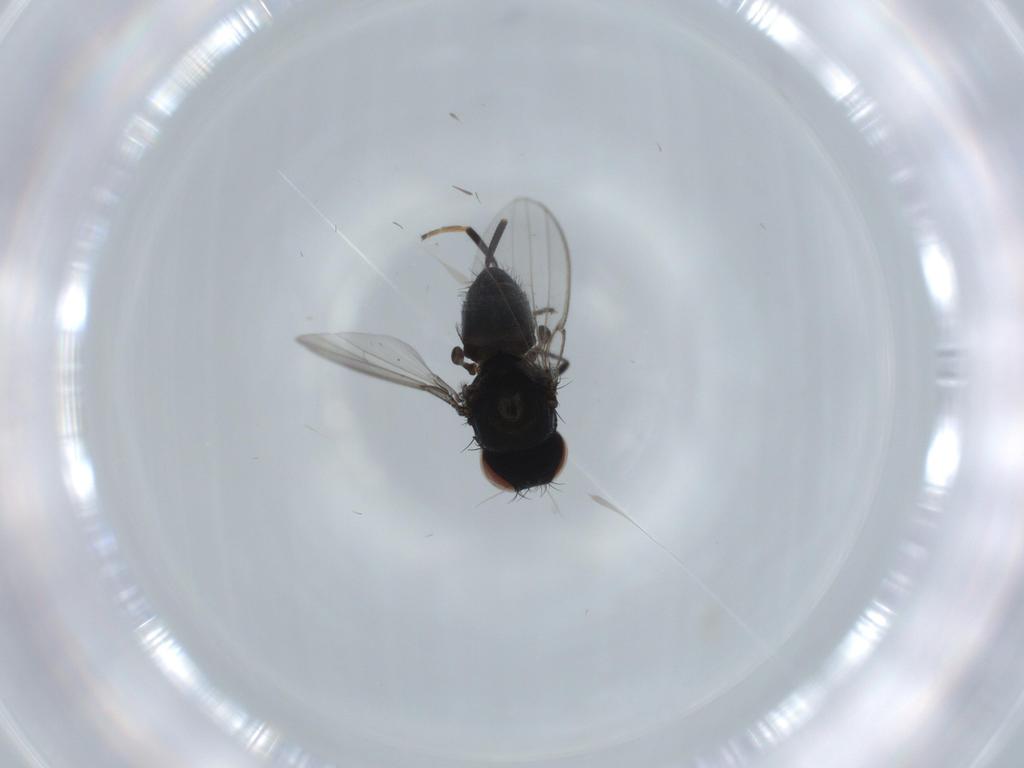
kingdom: Animalia
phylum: Arthropoda
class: Insecta
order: Diptera
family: Milichiidae
